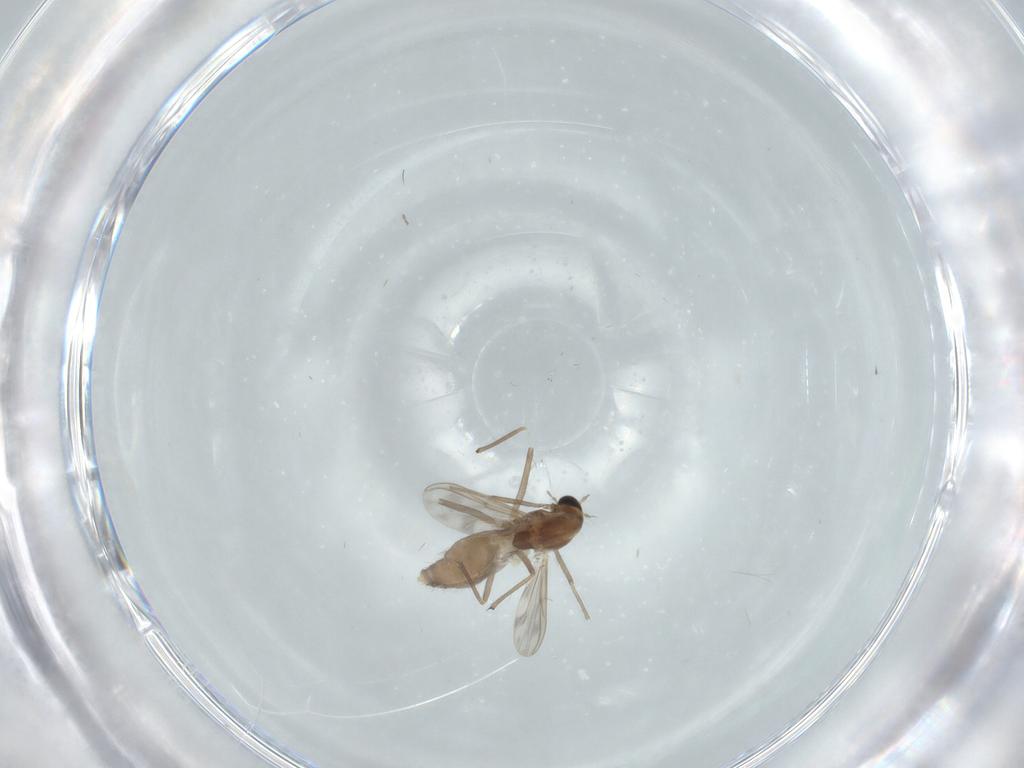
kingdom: Animalia
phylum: Arthropoda
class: Insecta
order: Diptera
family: Chironomidae
